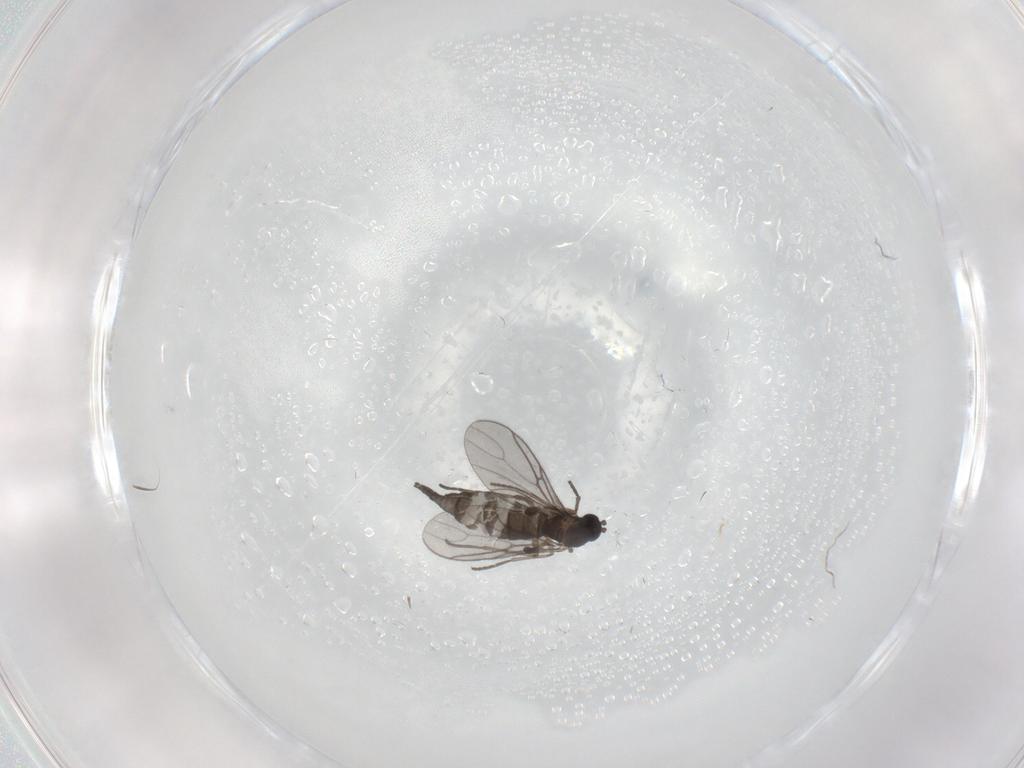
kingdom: Animalia
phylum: Arthropoda
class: Insecta
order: Diptera
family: Sciaridae
